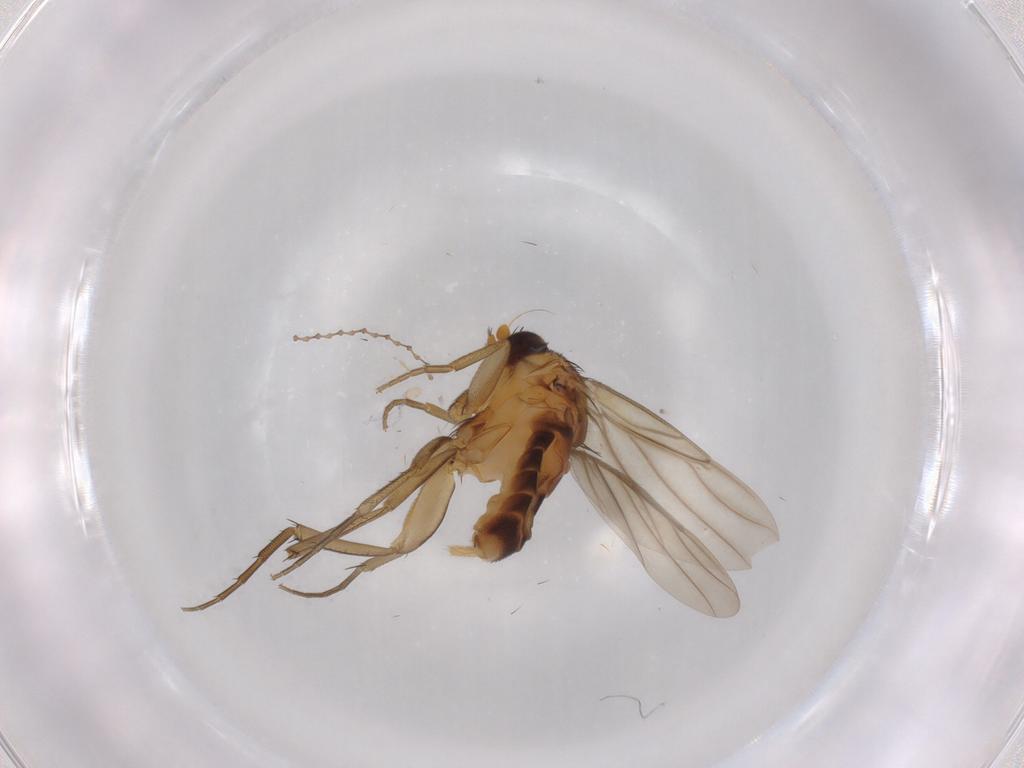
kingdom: Animalia
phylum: Arthropoda
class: Insecta
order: Diptera
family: Cecidomyiidae
